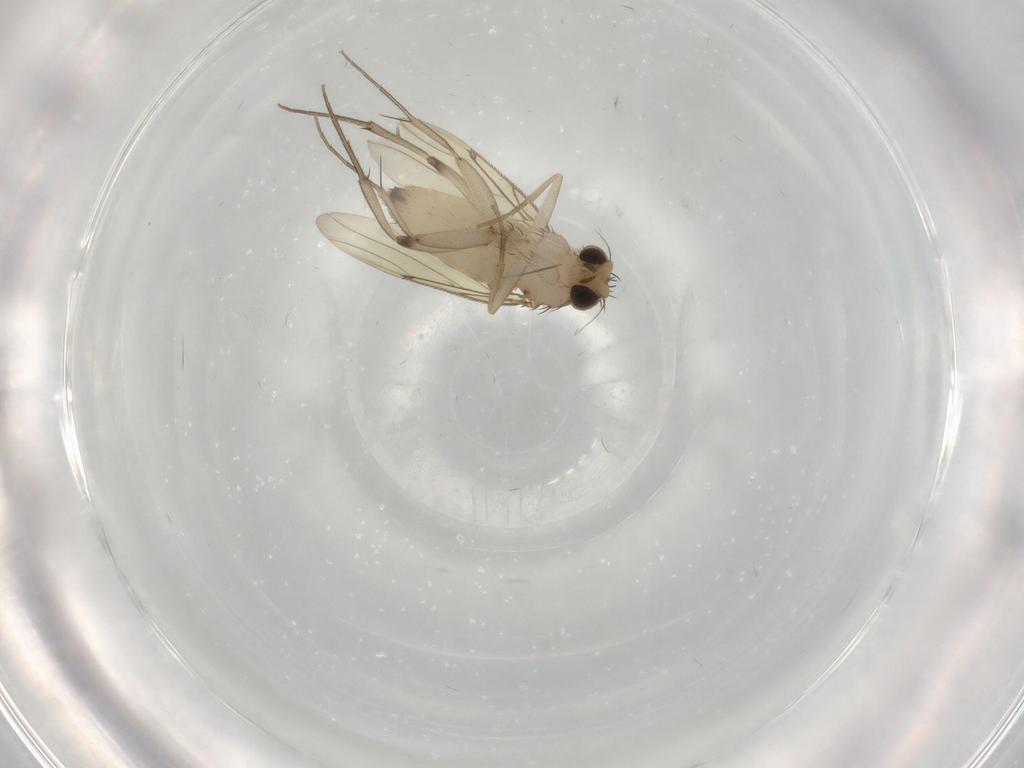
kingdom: Animalia
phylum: Arthropoda
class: Insecta
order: Diptera
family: Phoridae
